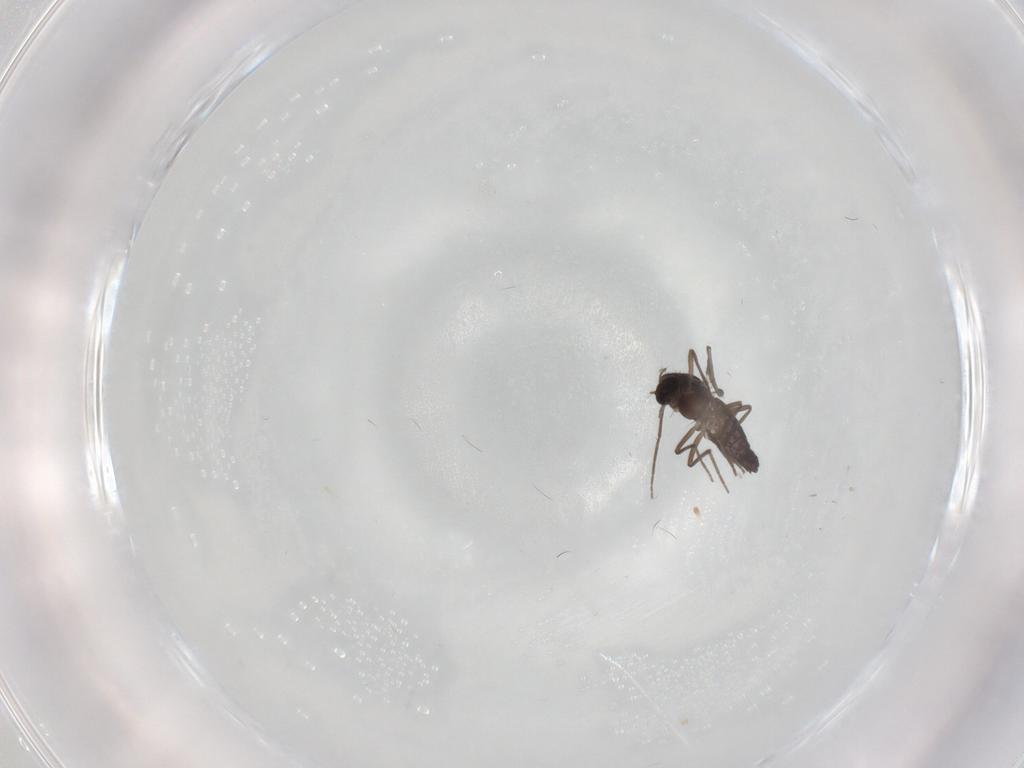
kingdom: Animalia
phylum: Arthropoda
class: Insecta
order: Diptera
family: Chironomidae
